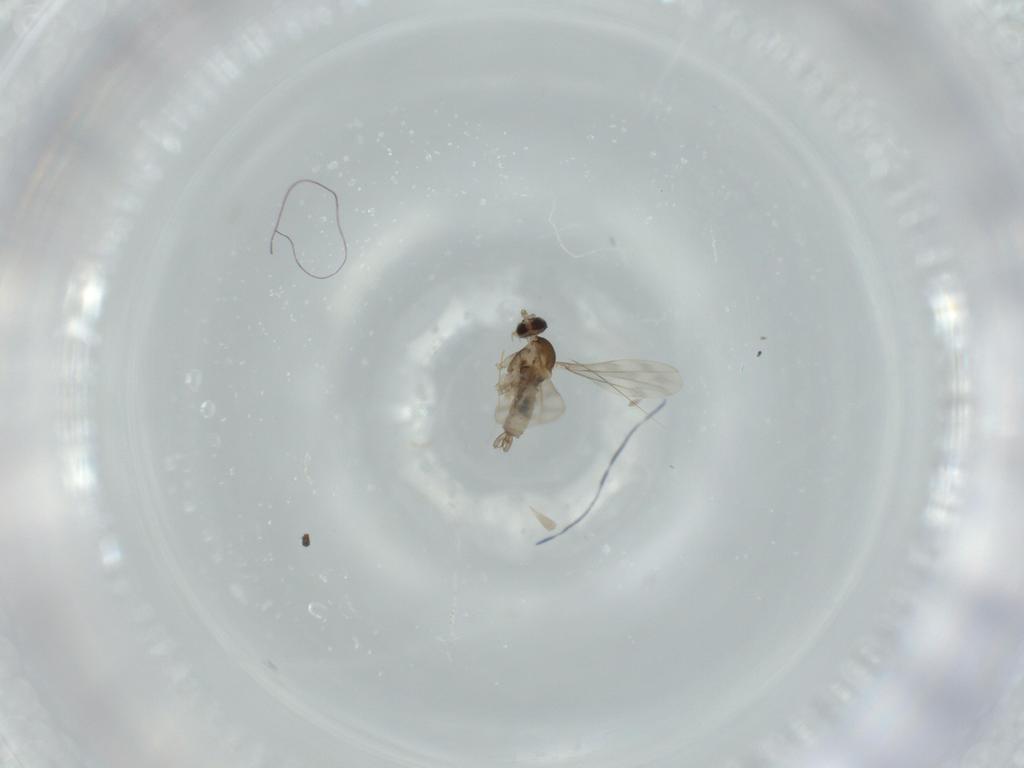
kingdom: Animalia
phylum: Arthropoda
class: Insecta
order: Diptera
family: Cecidomyiidae
